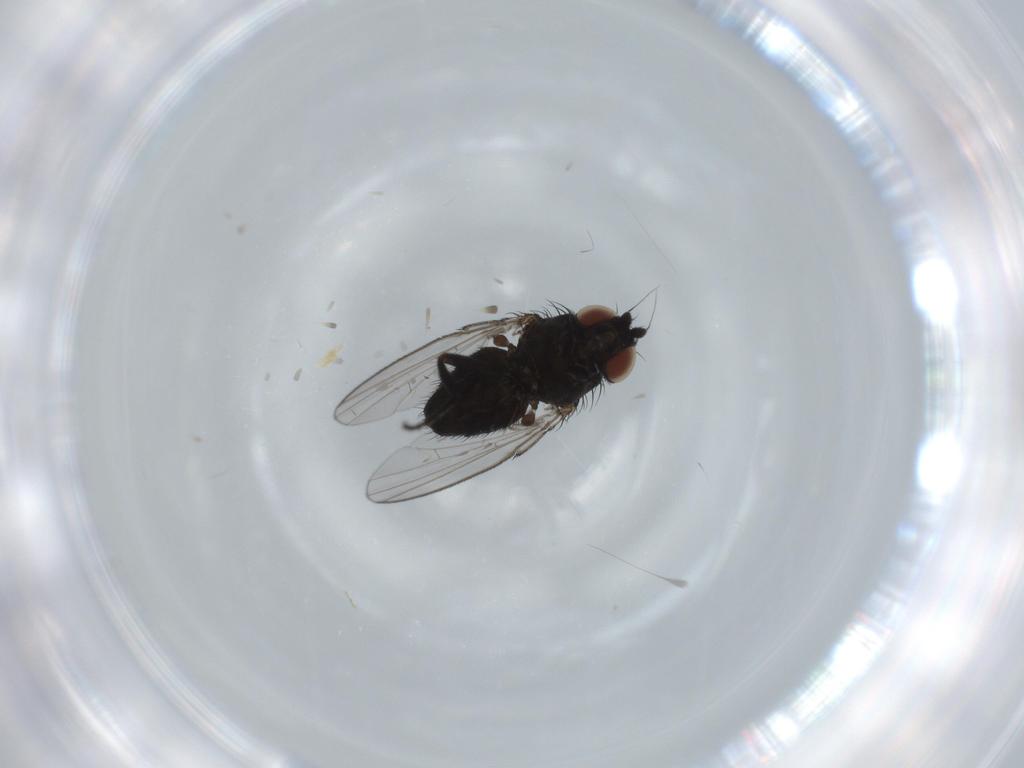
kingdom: Animalia
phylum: Arthropoda
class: Insecta
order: Diptera
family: Milichiidae
